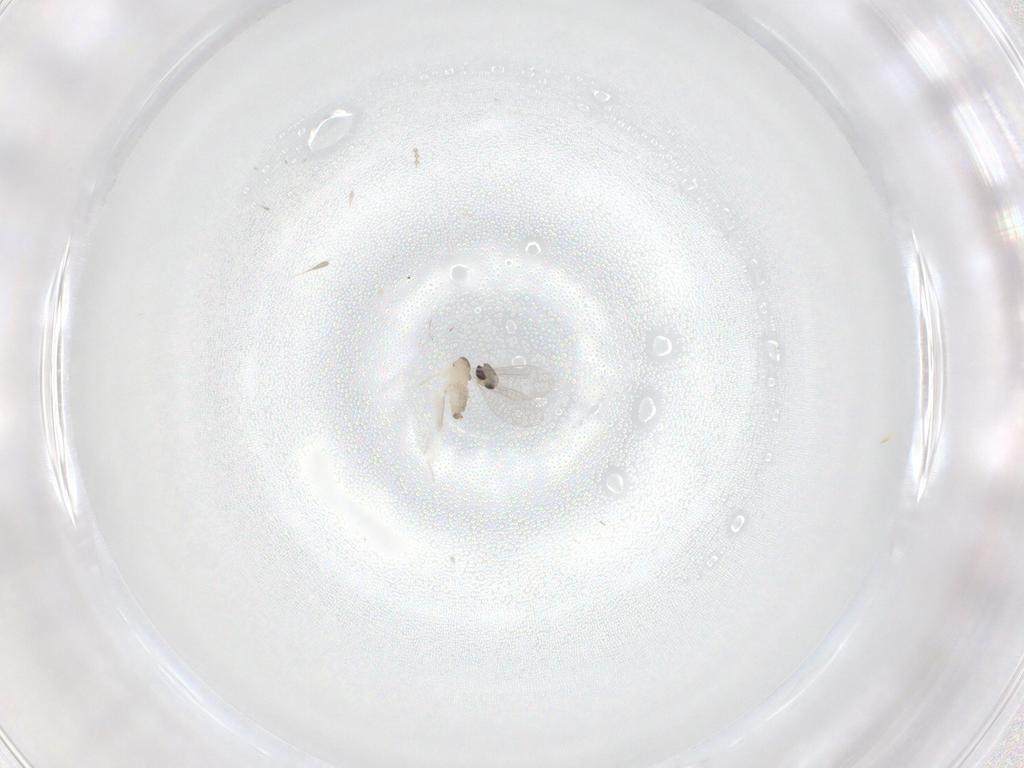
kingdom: Animalia
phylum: Arthropoda
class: Insecta
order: Diptera
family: Cecidomyiidae
